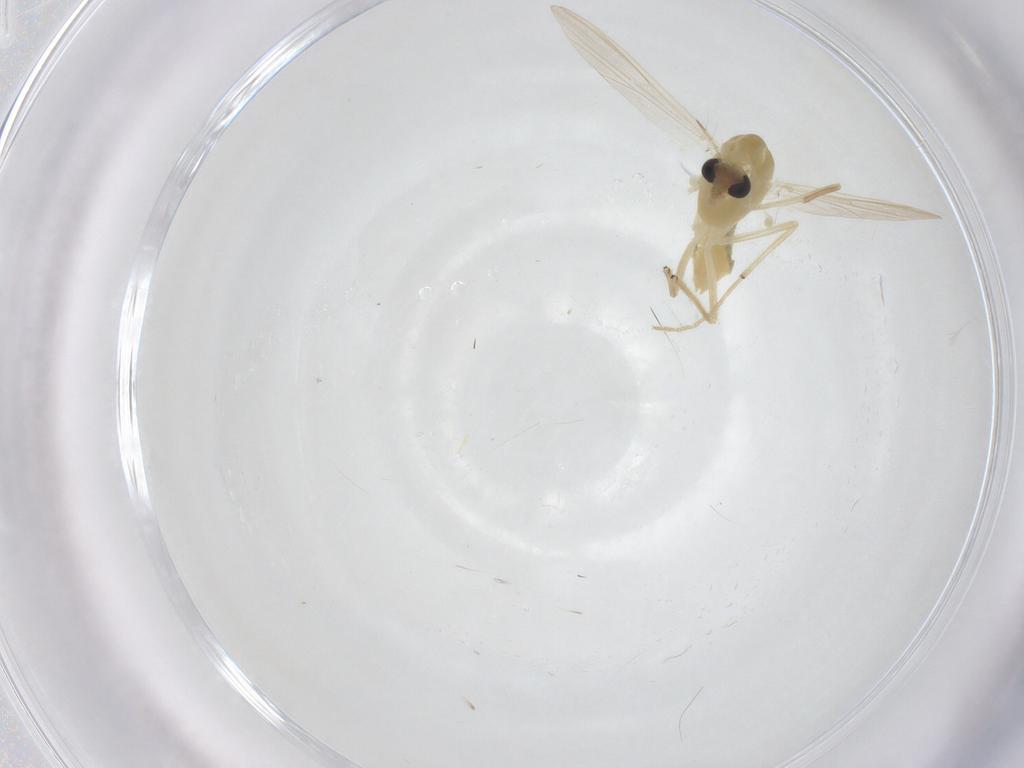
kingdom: Animalia
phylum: Arthropoda
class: Insecta
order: Diptera
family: Chironomidae
